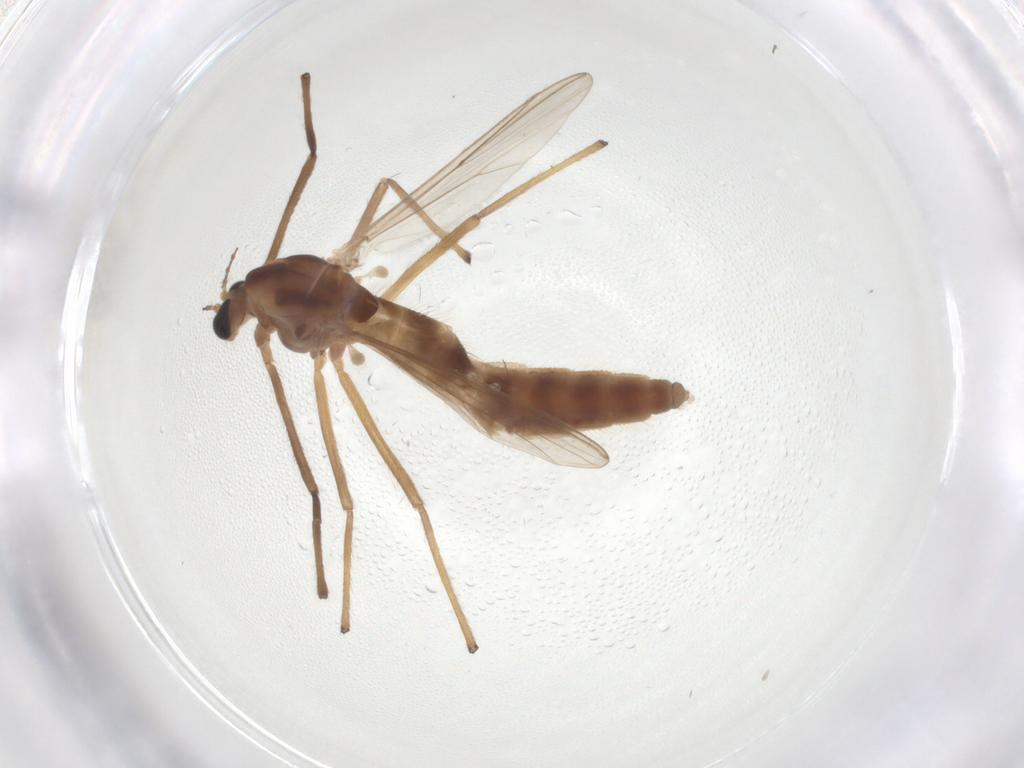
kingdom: Animalia
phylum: Arthropoda
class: Insecta
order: Diptera
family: Chironomidae
